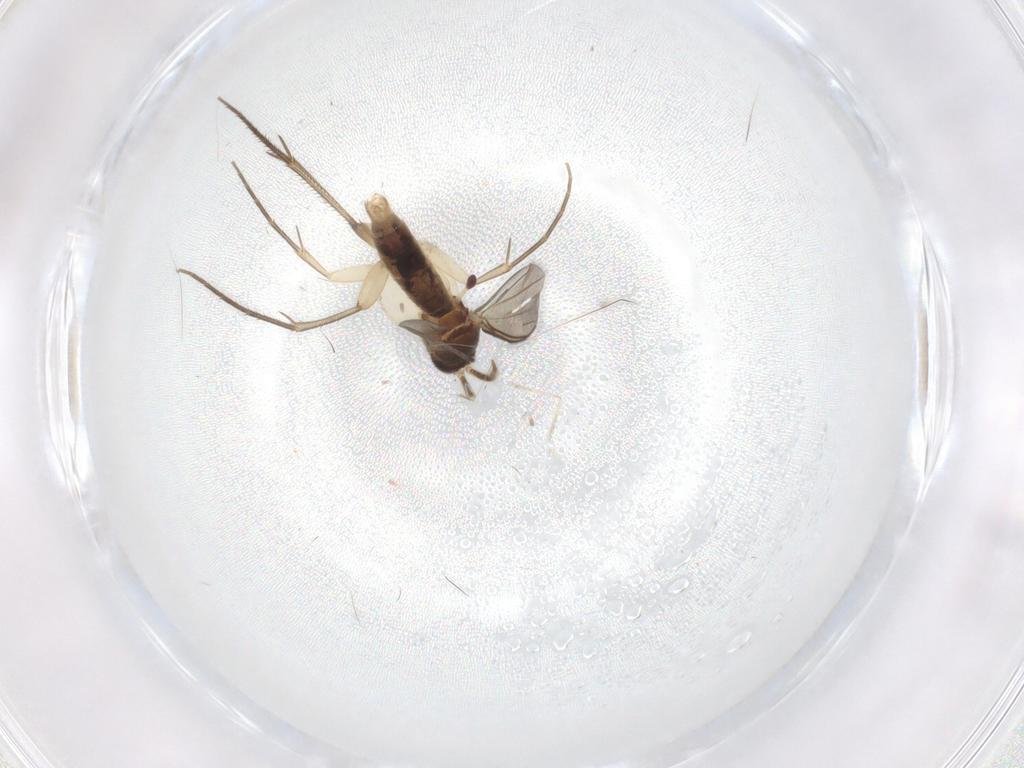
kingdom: Animalia
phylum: Arthropoda
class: Insecta
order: Diptera
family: Mycetophilidae
